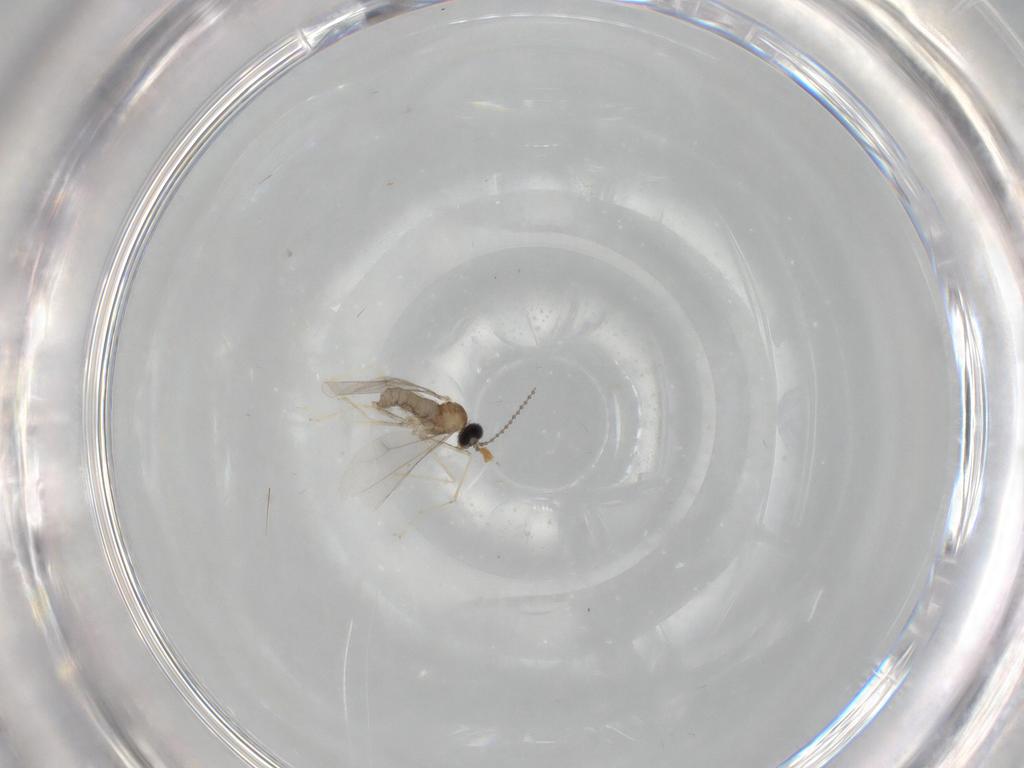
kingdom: Animalia
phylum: Arthropoda
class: Insecta
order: Diptera
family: Cecidomyiidae
